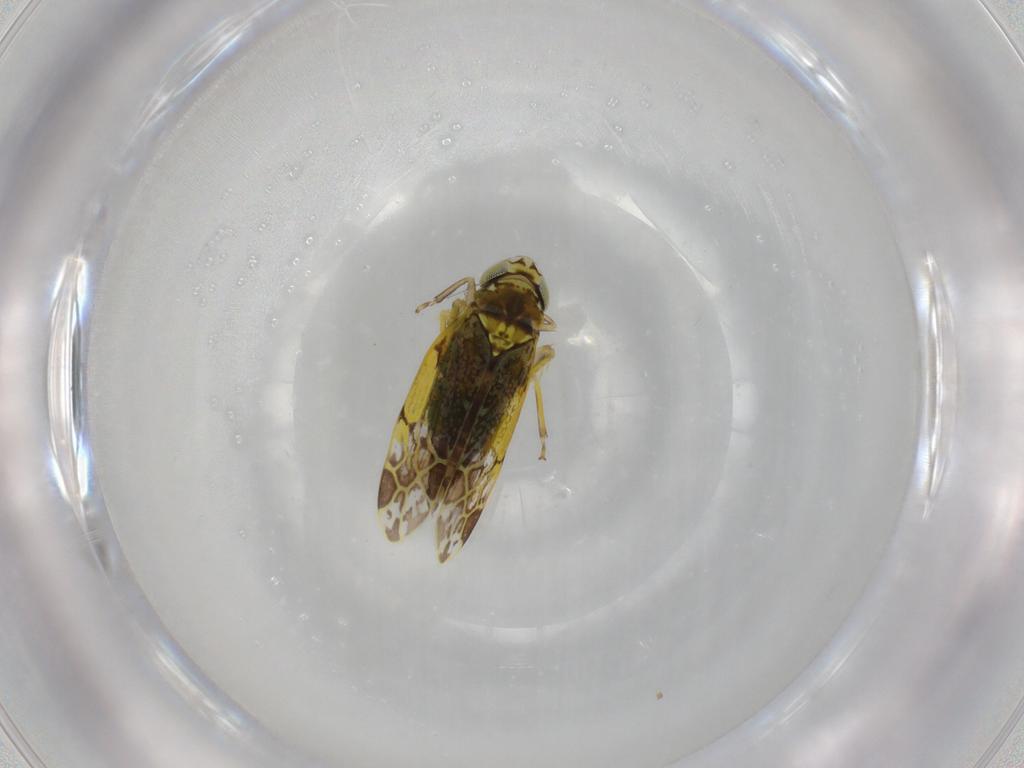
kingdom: Animalia
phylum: Arthropoda
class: Insecta
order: Hemiptera
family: Cicadellidae
